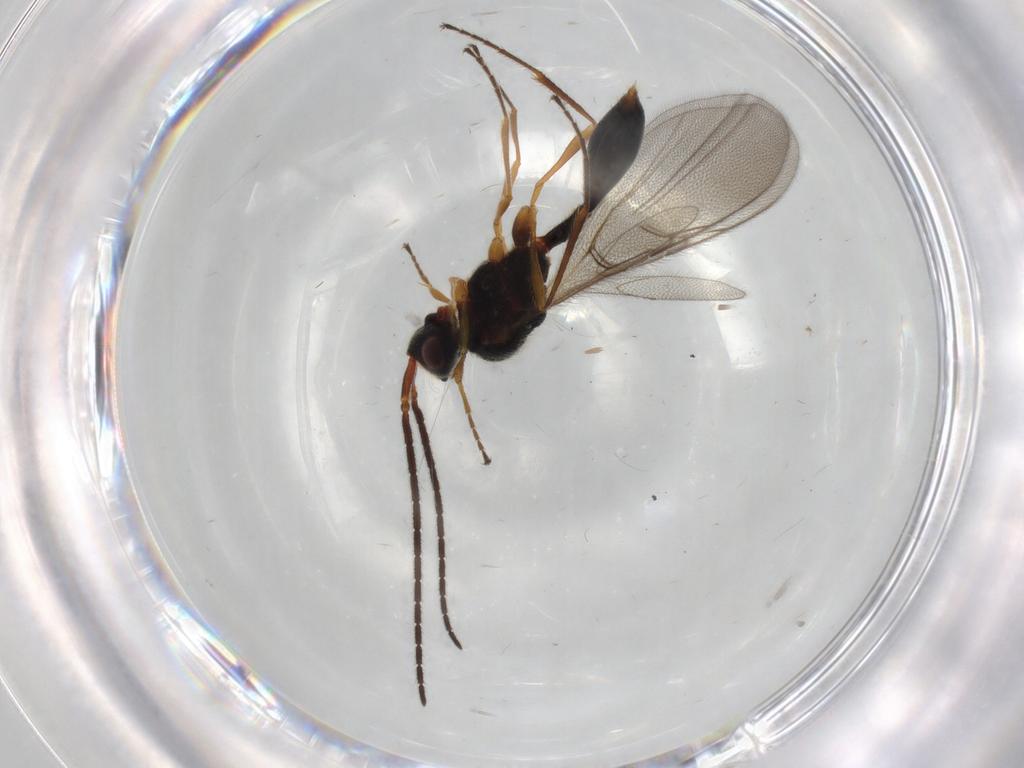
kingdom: Animalia
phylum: Arthropoda
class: Insecta
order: Hymenoptera
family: Diapriidae
